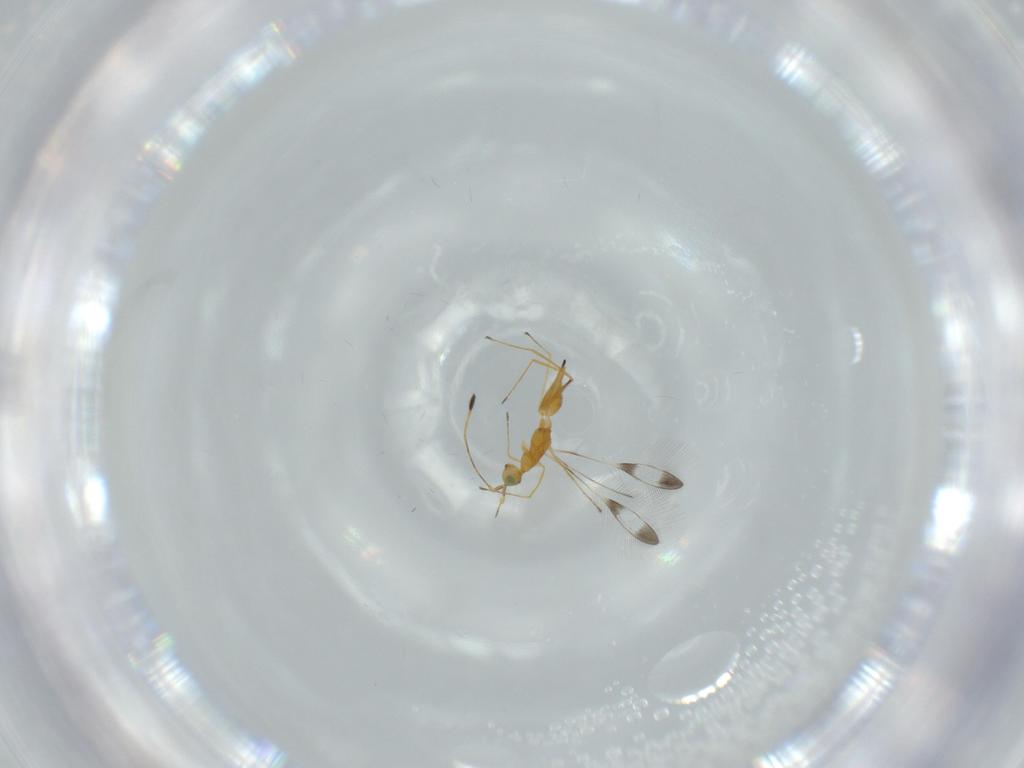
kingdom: Animalia
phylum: Arthropoda
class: Insecta
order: Hymenoptera
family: Mymaridae
